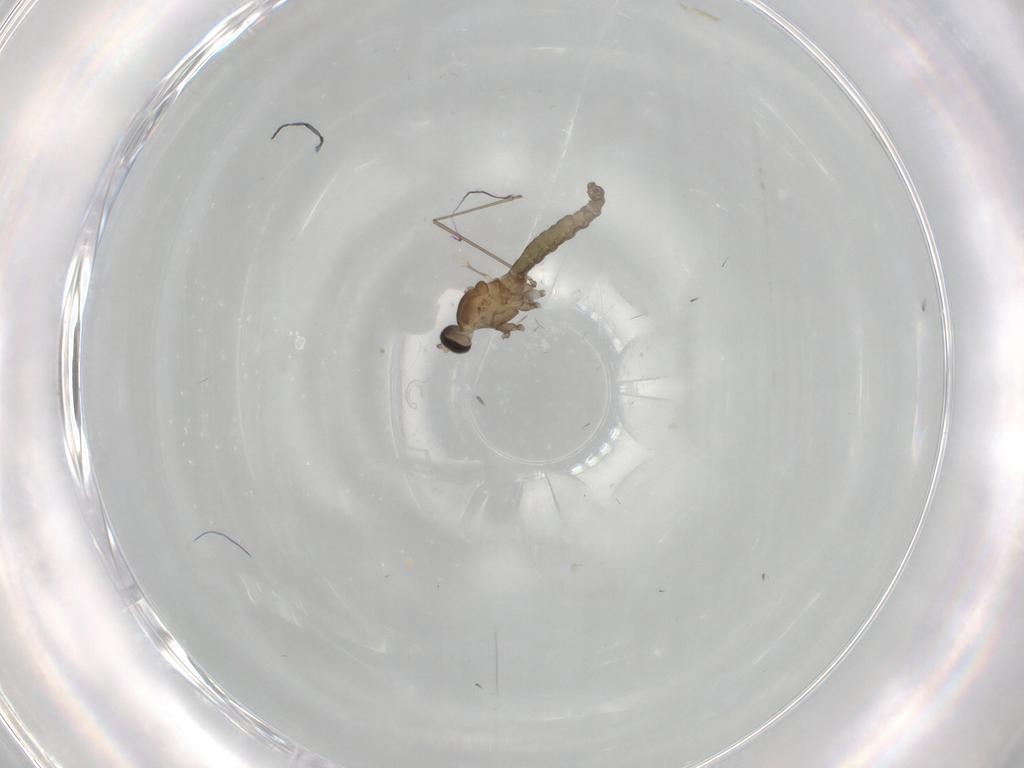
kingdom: Animalia
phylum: Arthropoda
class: Insecta
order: Diptera
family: Cecidomyiidae
